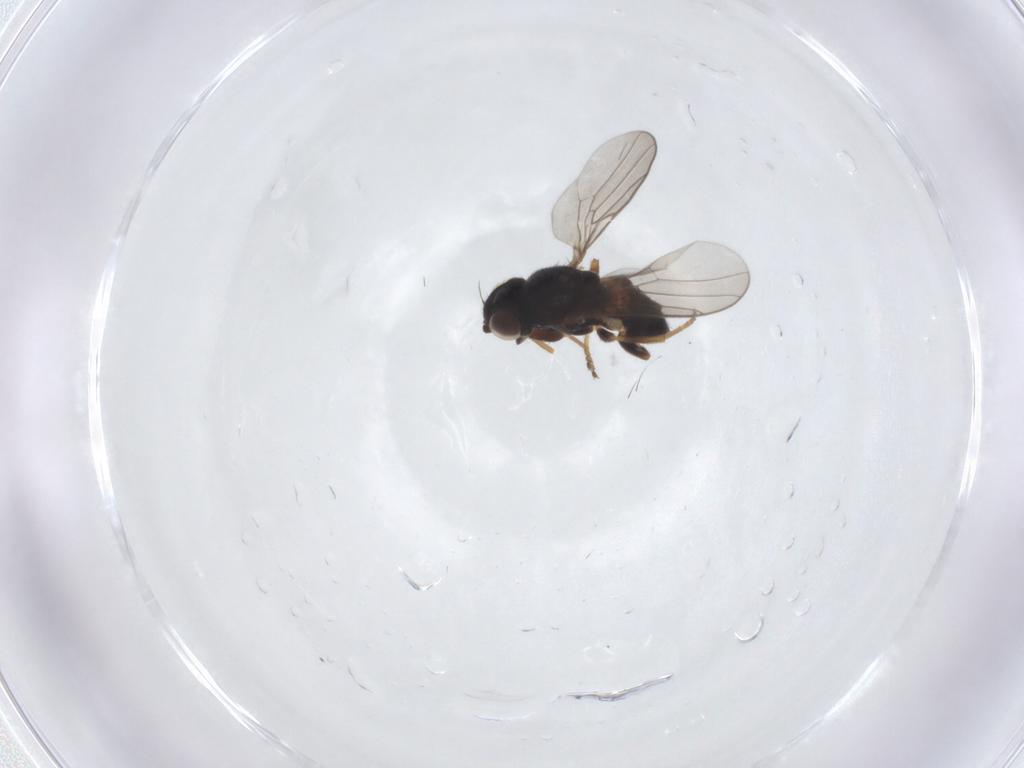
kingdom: Animalia
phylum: Arthropoda
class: Insecta
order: Diptera
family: Chloropidae
